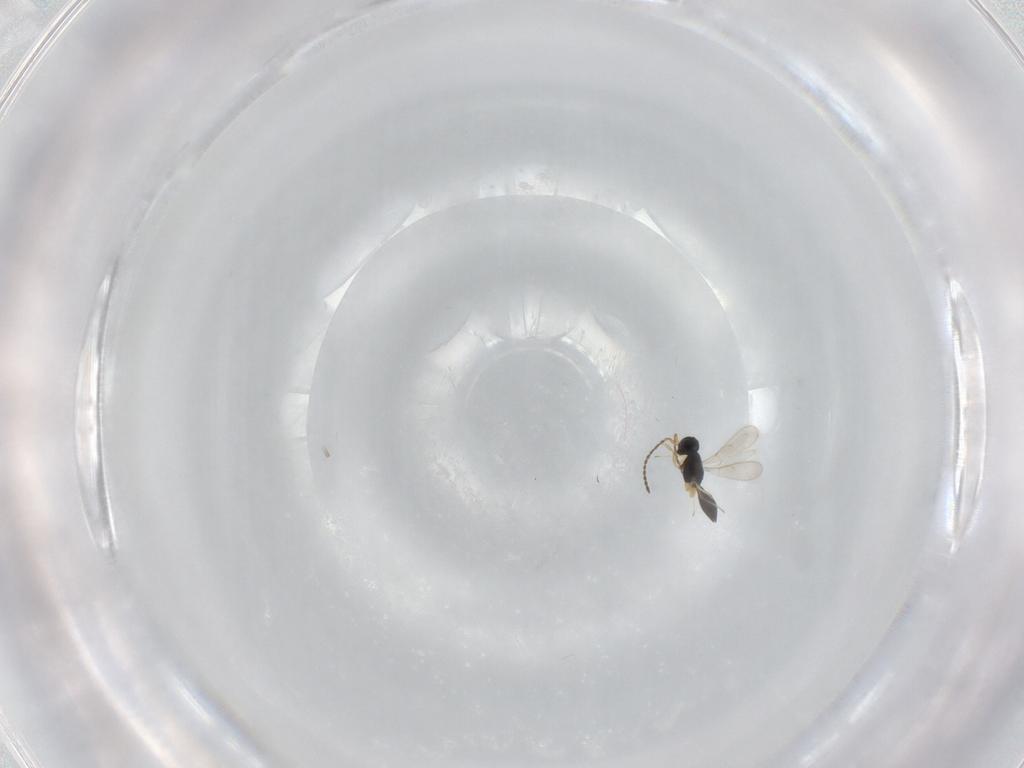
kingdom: Animalia
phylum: Arthropoda
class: Insecta
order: Hymenoptera
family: Scelionidae
